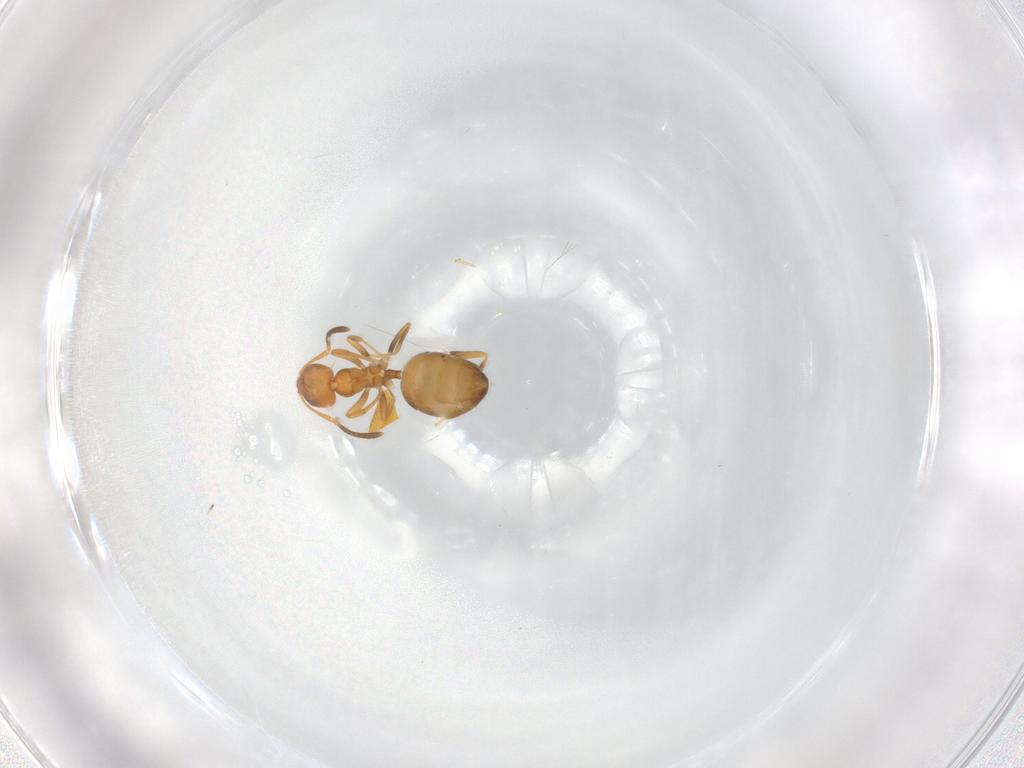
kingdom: Animalia
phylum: Arthropoda
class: Insecta
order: Hymenoptera
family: Formicidae
